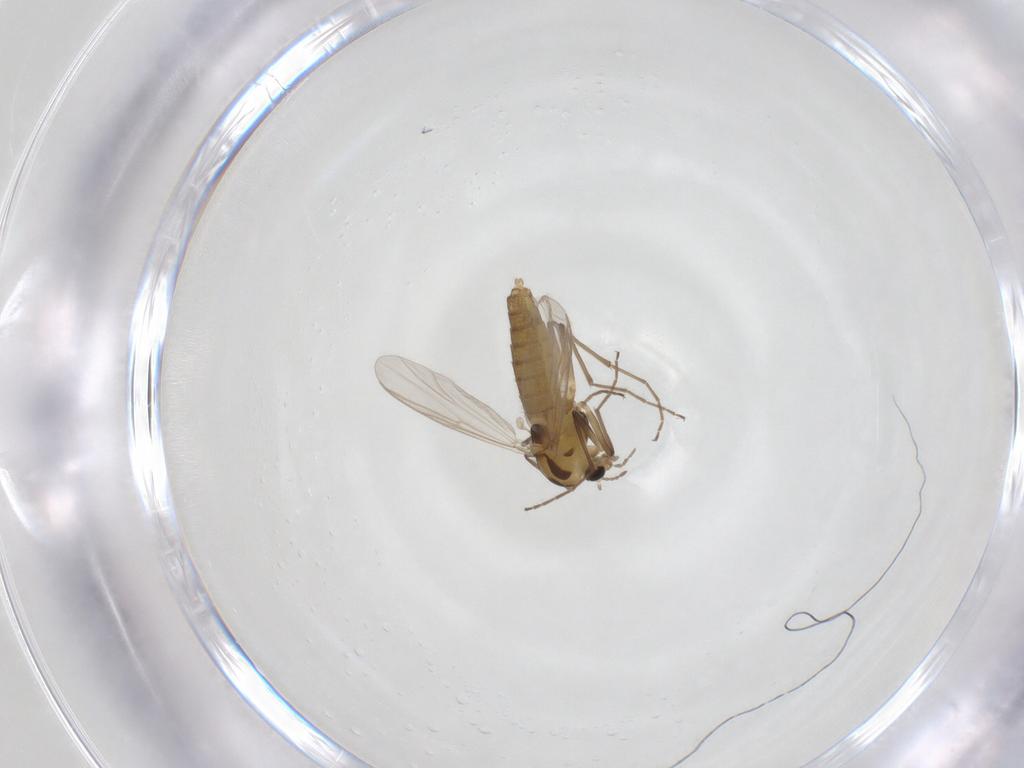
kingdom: Animalia
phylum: Arthropoda
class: Insecta
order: Diptera
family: Chironomidae
